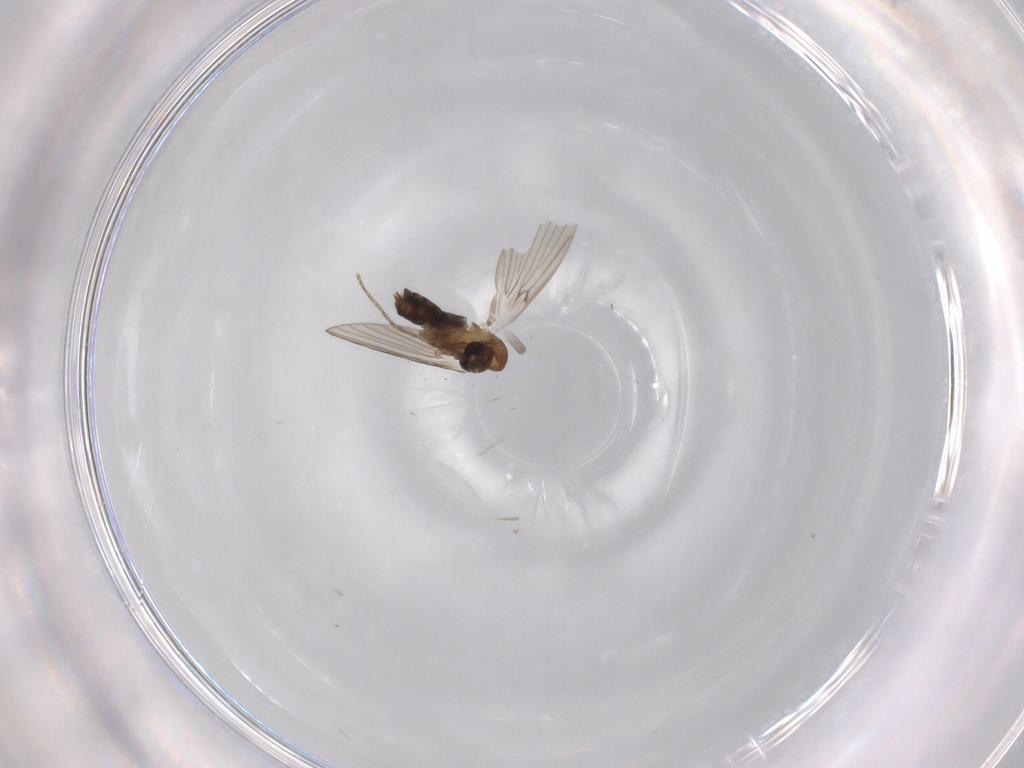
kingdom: Animalia
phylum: Arthropoda
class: Insecta
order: Diptera
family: Psychodidae
